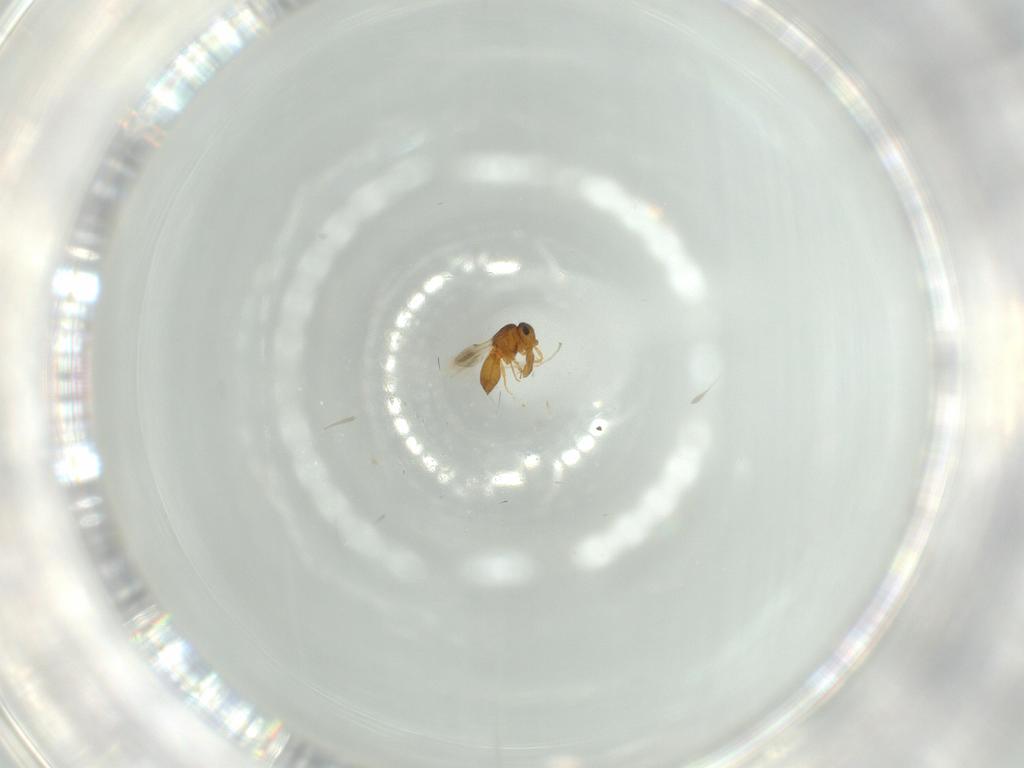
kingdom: Animalia
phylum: Arthropoda
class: Insecta
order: Hymenoptera
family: Scelionidae
